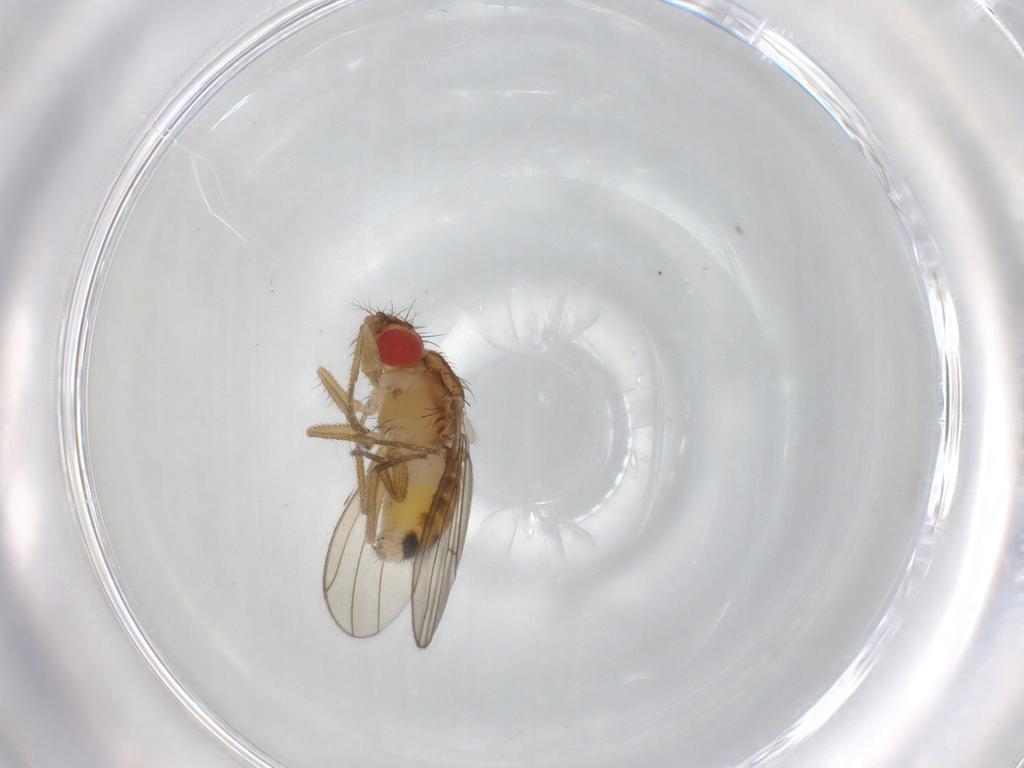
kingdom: Animalia
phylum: Arthropoda
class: Insecta
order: Diptera
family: Drosophilidae
